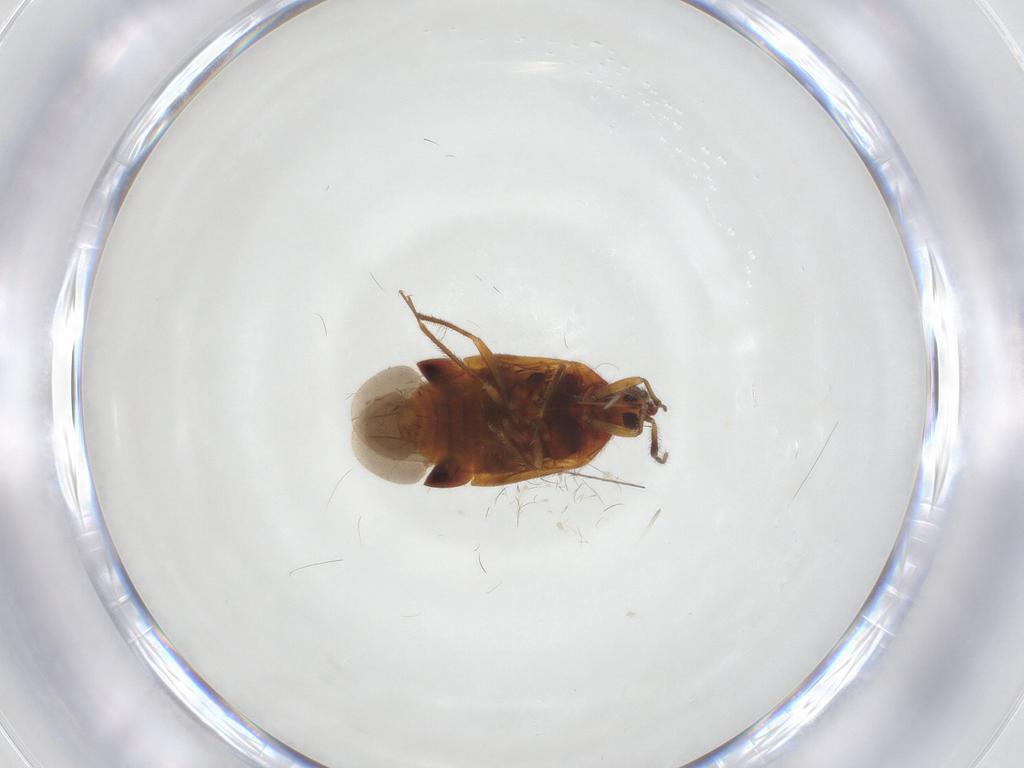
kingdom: Animalia
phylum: Arthropoda
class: Insecta
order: Hemiptera
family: Anthocoridae
